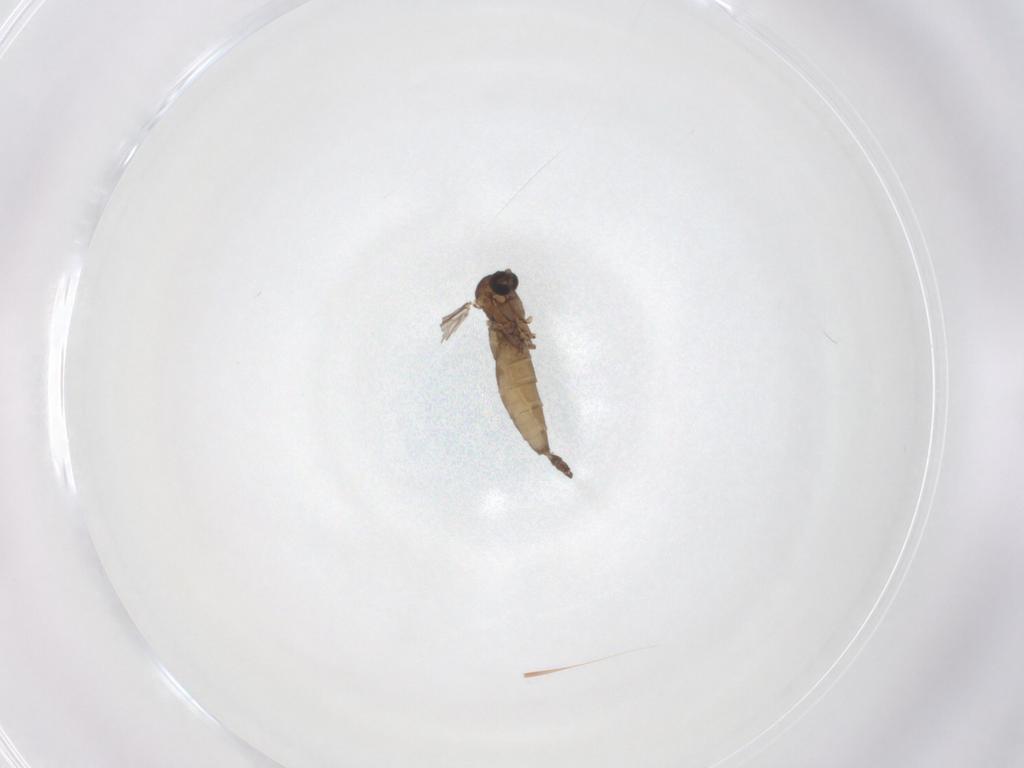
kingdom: Animalia
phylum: Arthropoda
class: Insecta
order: Diptera
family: Sciaridae
